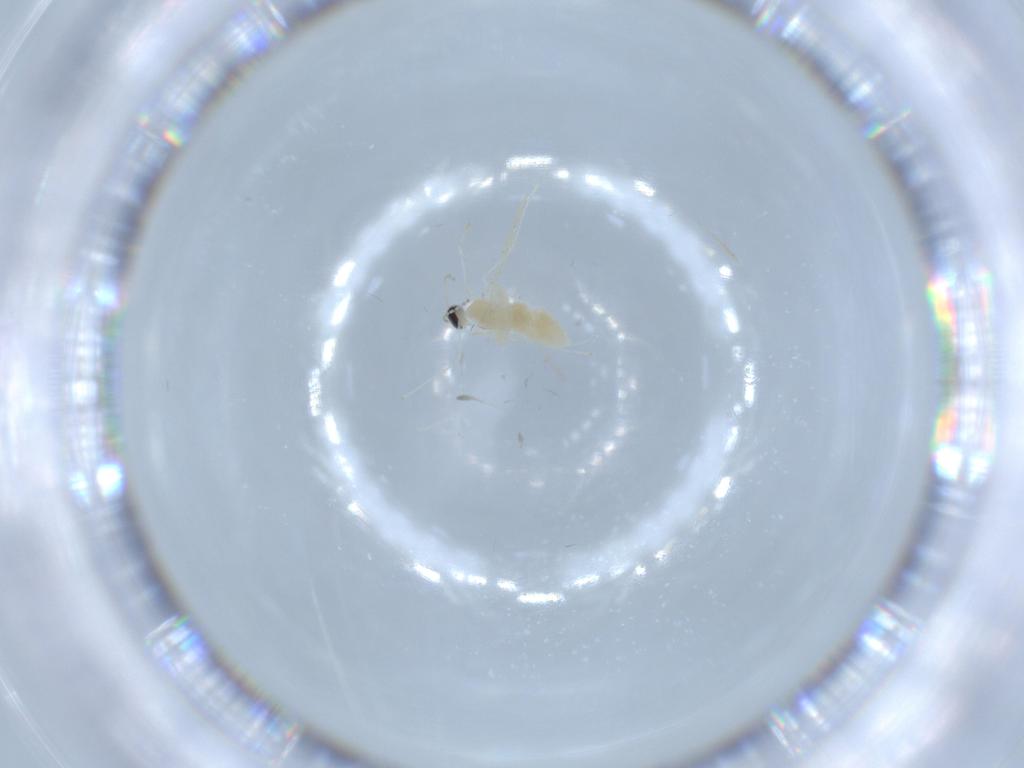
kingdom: Animalia
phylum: Arthropoda
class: Insecta
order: Diptera
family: Cecidomyiidae
